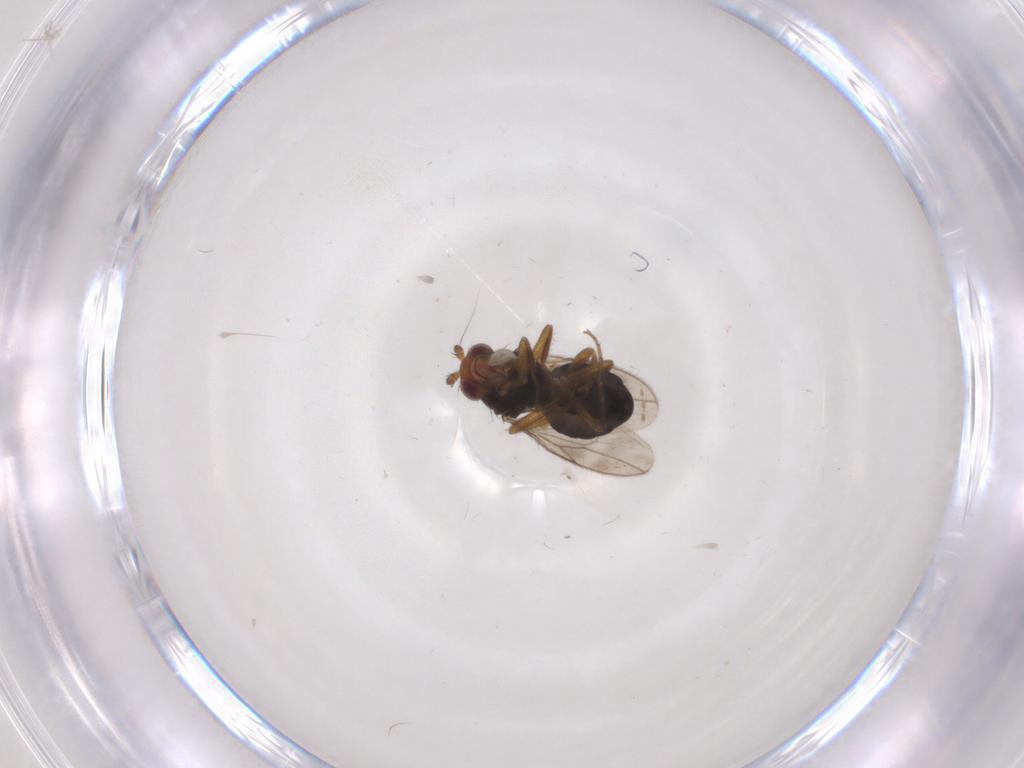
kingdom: Animalia
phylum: Arthropoda
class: Insecta
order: Diptera
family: Sphaeroceridae
